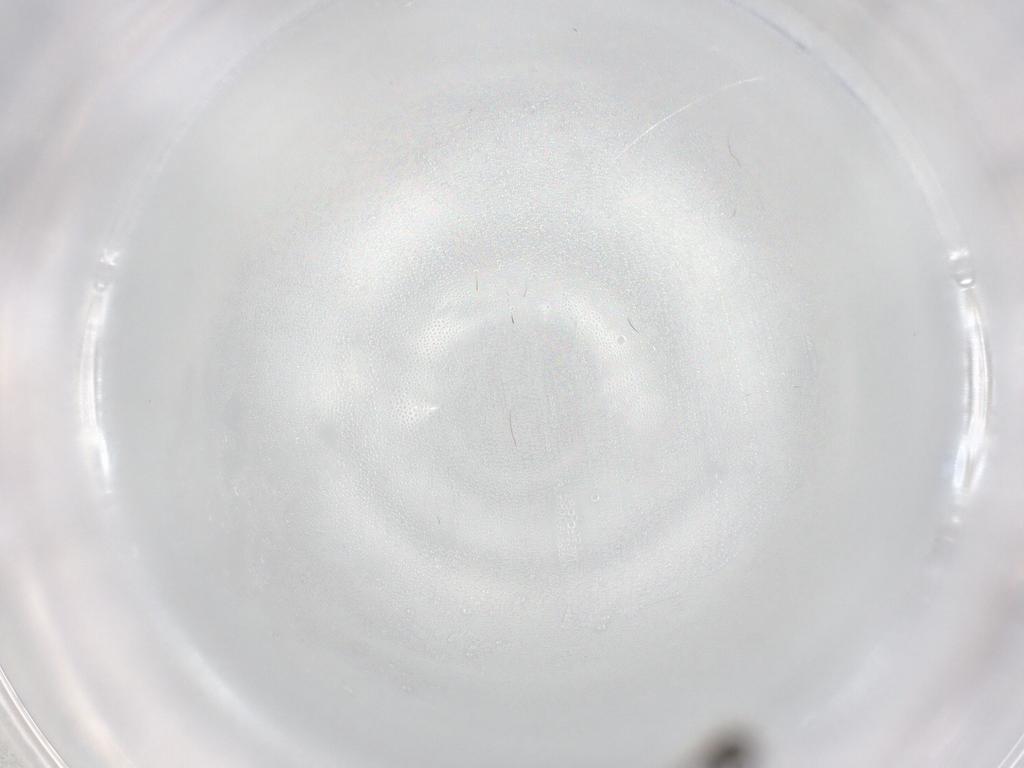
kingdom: Animalia
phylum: Arthropoda
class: Insecta
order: Diptera
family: Phoridae
